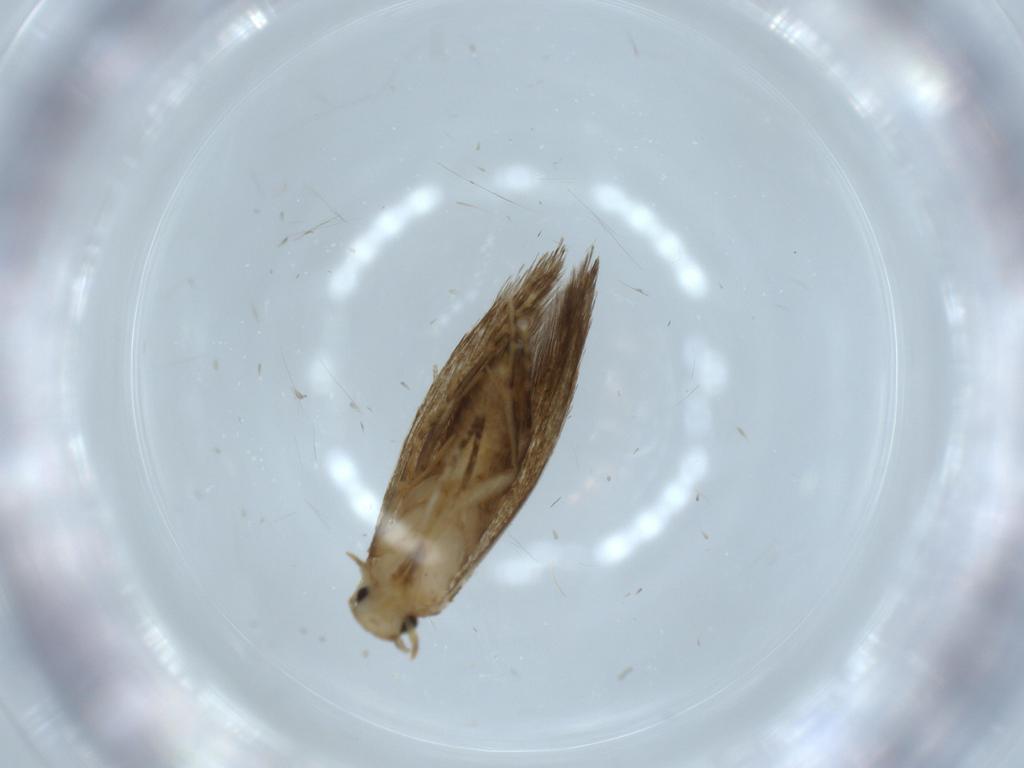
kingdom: Animalia
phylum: Arthropoda
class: Insecta
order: Lepidoptera
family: Tineidae
